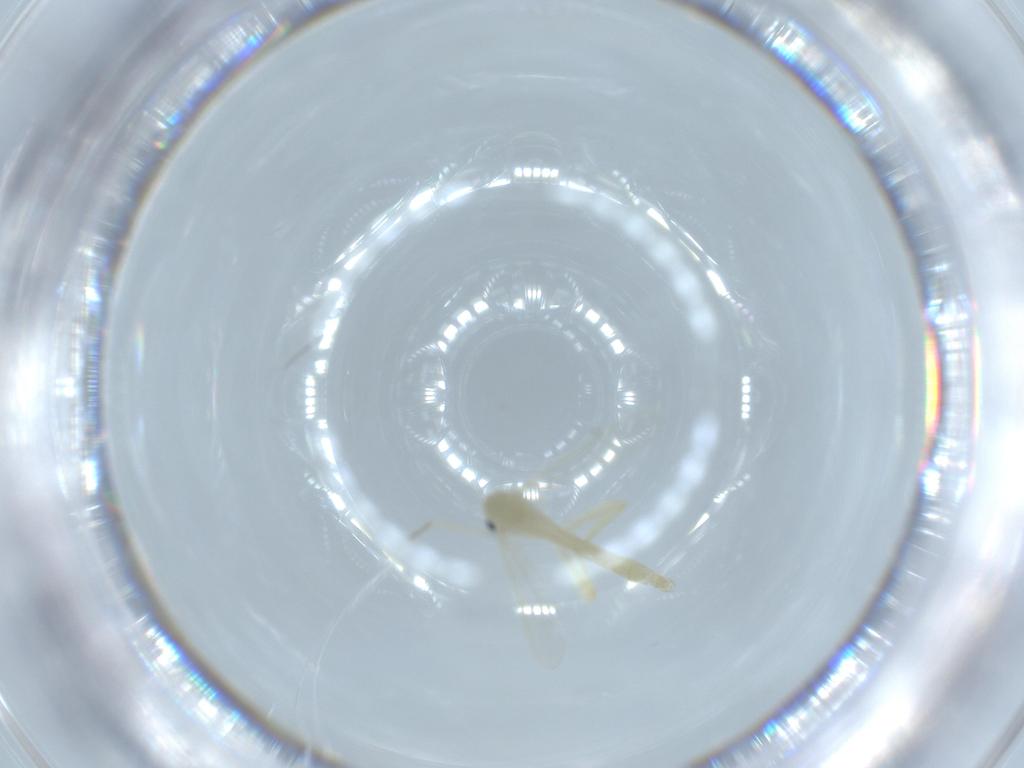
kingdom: Animalia
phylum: Arthropoda
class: Insecta
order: Diptera
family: Chironomidae
